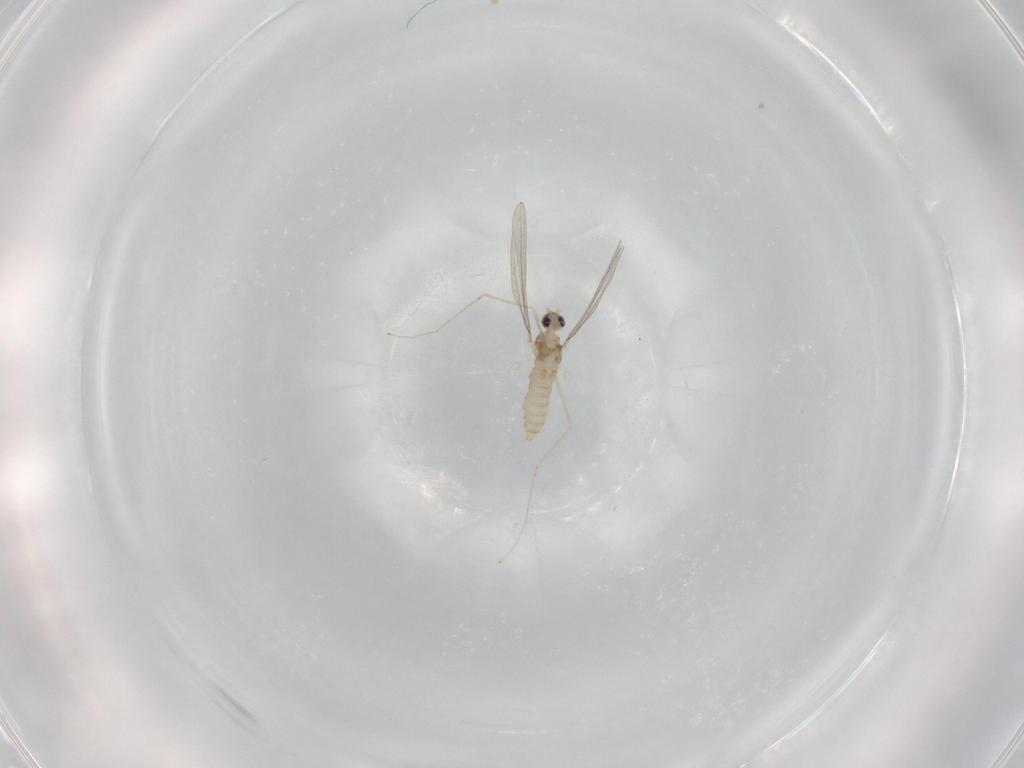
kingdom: Animalia
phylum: Arthropoda
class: Insecta
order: Diptera
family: Cecidomyiidae
